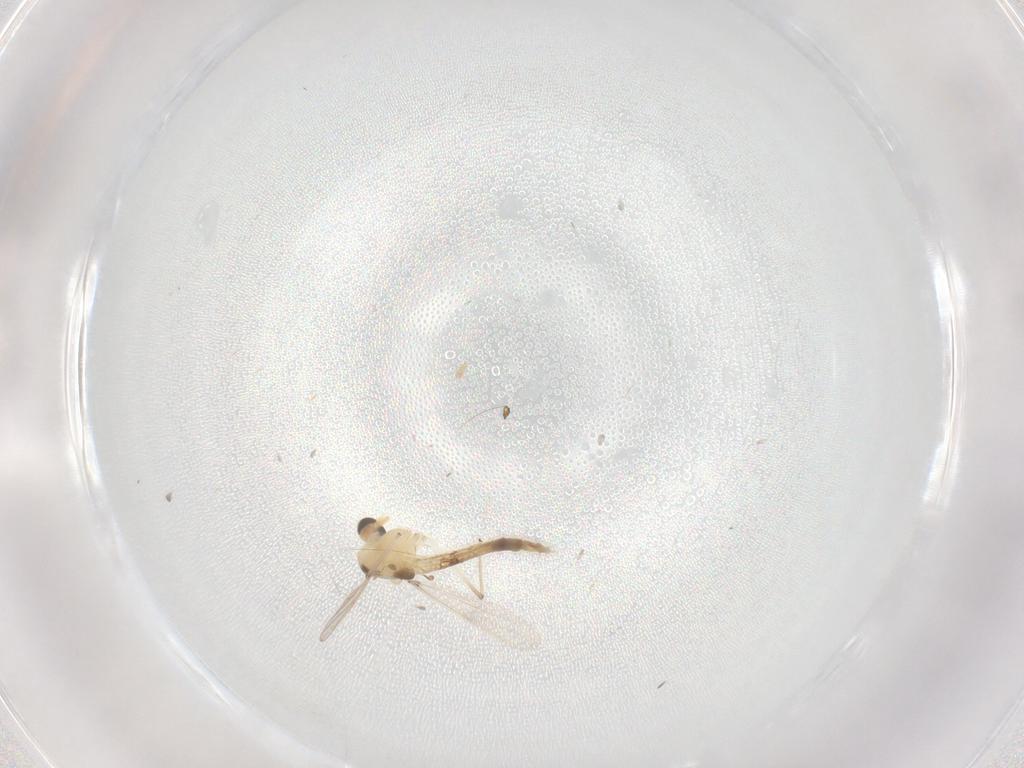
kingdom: Animalia
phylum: Arthropoda
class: Insecta
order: Diptera
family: Chironomidae
